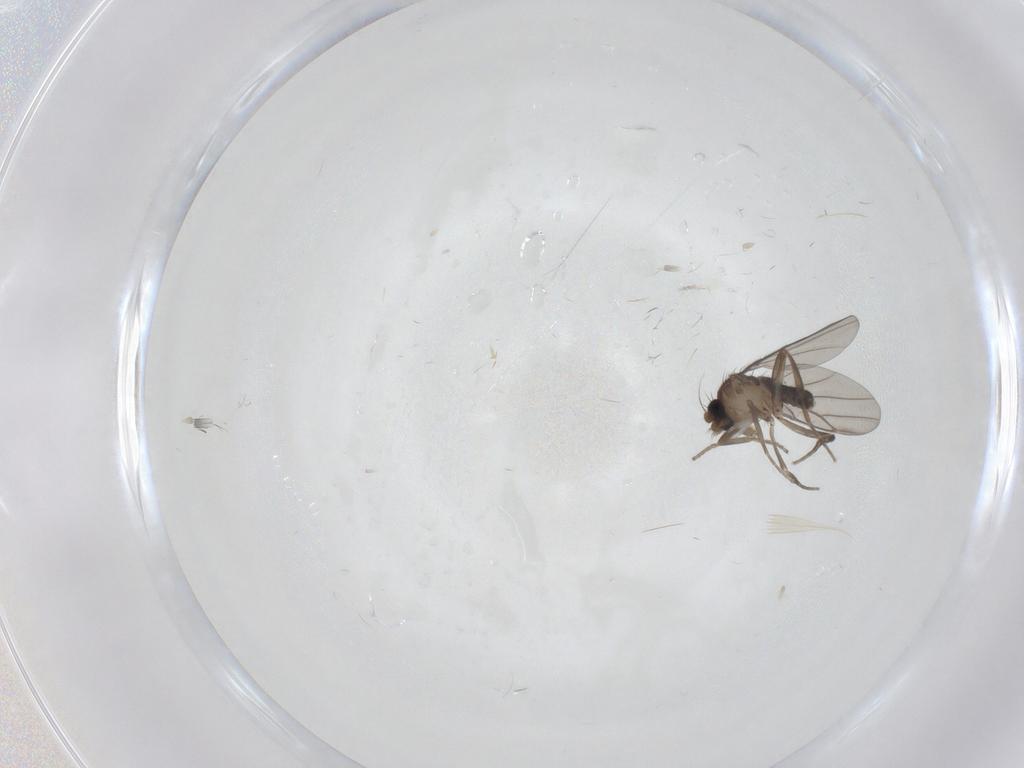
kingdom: Animalia
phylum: Arthropoda
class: Insecta
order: Diptera
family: Sciaridae
